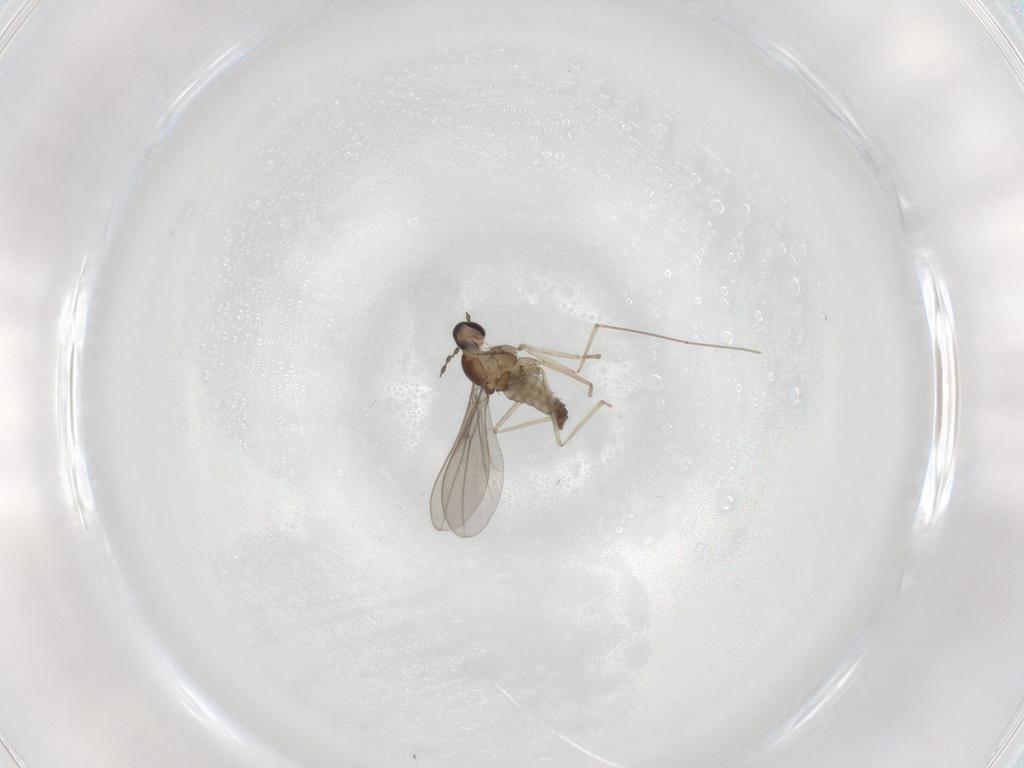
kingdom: Animalia
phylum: Arthropoda
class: Insecta
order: Diptera
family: Cecidomyiidae
